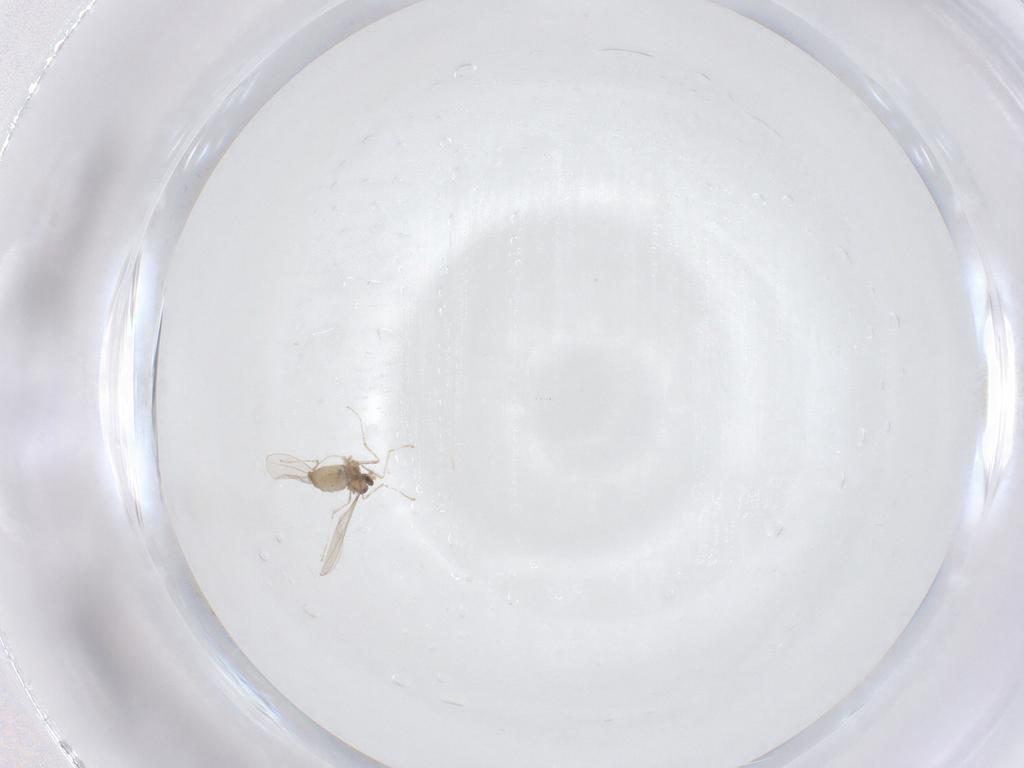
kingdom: Animalia
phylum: Arthropoda
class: Insecta
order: Diptera
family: Cecidomyiidae
